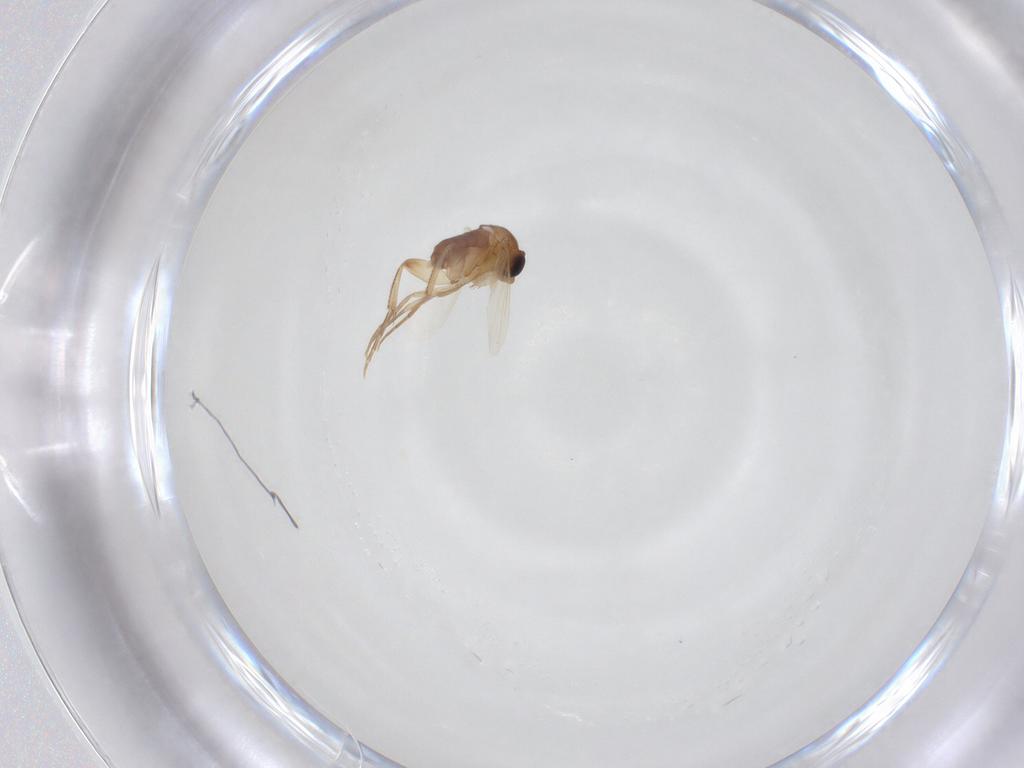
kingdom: Animalia
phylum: Arthropoda
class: Insecta
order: Diptera
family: Phoridae
